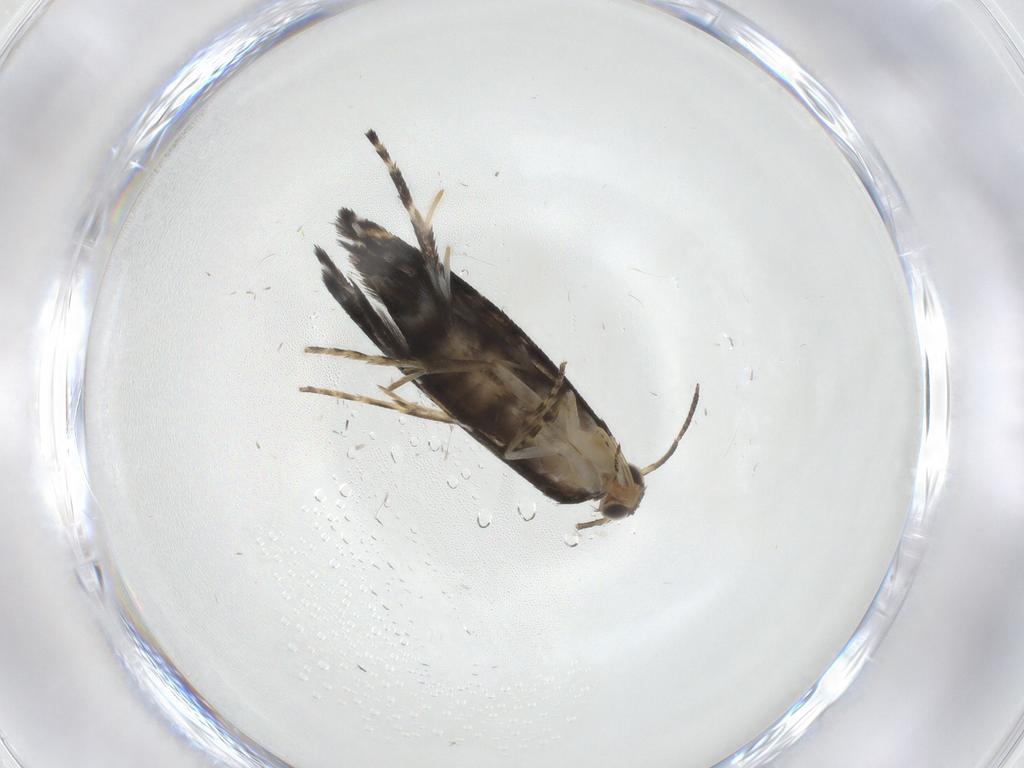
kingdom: Animalia
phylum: Arthropoda
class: Insecta
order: Lepidoptera
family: Glyphipterigidae
